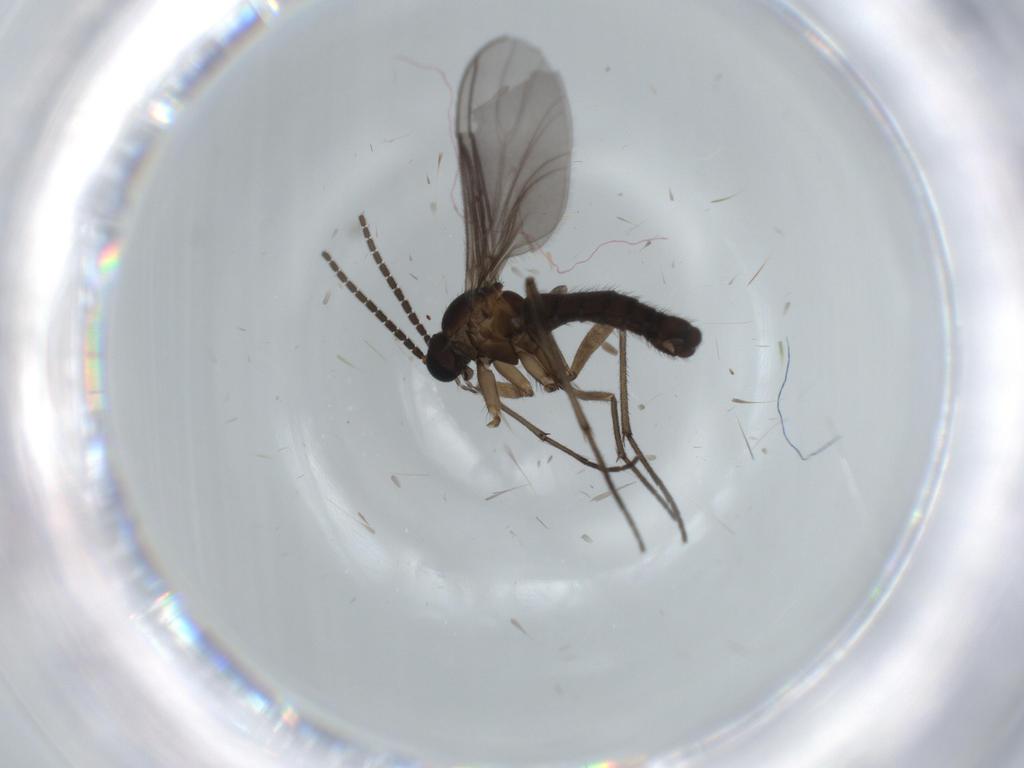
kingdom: Animalia
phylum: Arthropoda
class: Insecta
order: Diptera
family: Sciaridae
